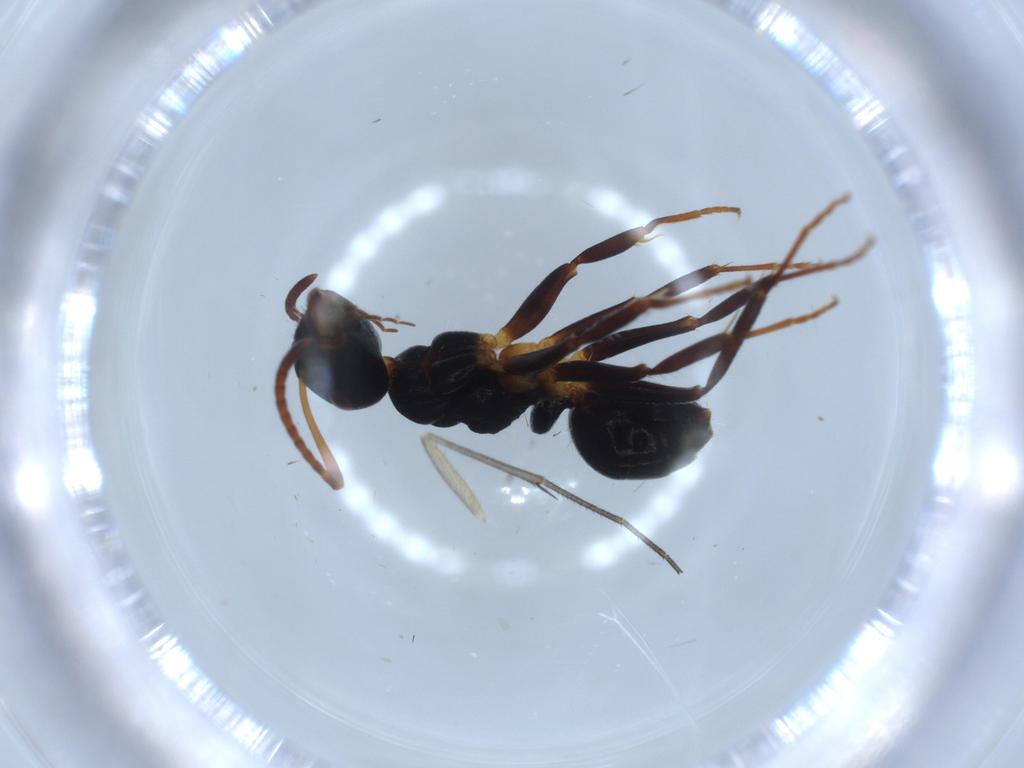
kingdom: Animalia
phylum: Arthropoda
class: Insecta
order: Hymenoptera
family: Formicidae
